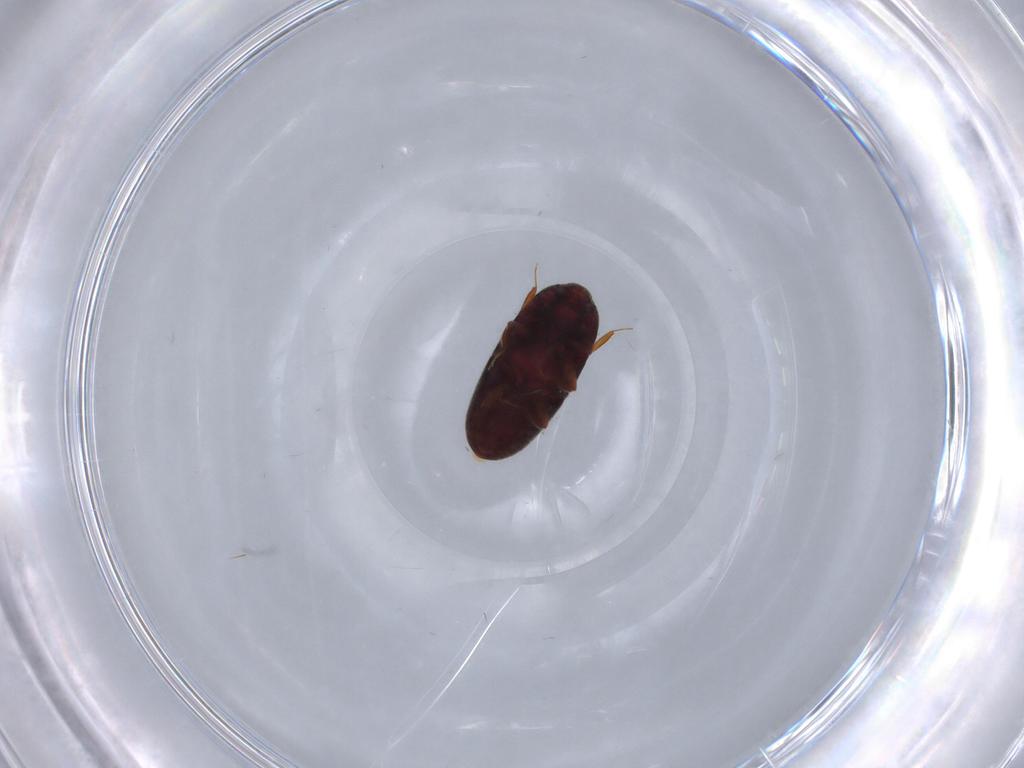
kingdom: Animalia
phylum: Arthropoda
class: Insecta
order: Coleoptera
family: Throscidae
